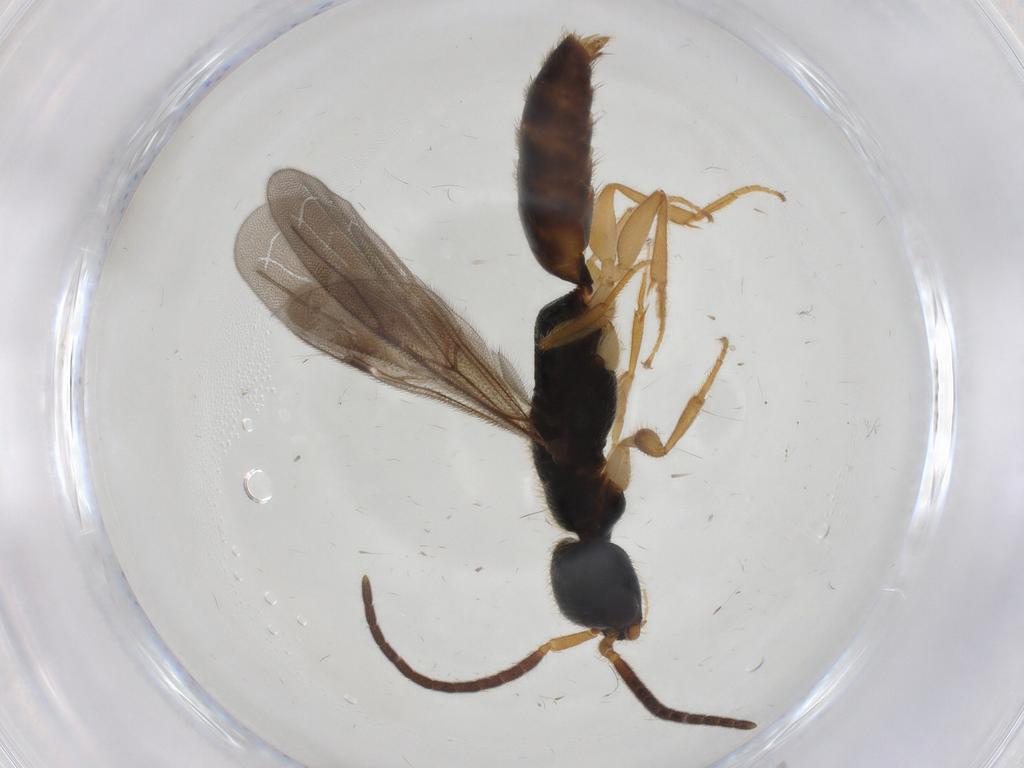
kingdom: Animalia
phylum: Arthropoda
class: Insecta
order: Hymenoptera
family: Bethylidae
